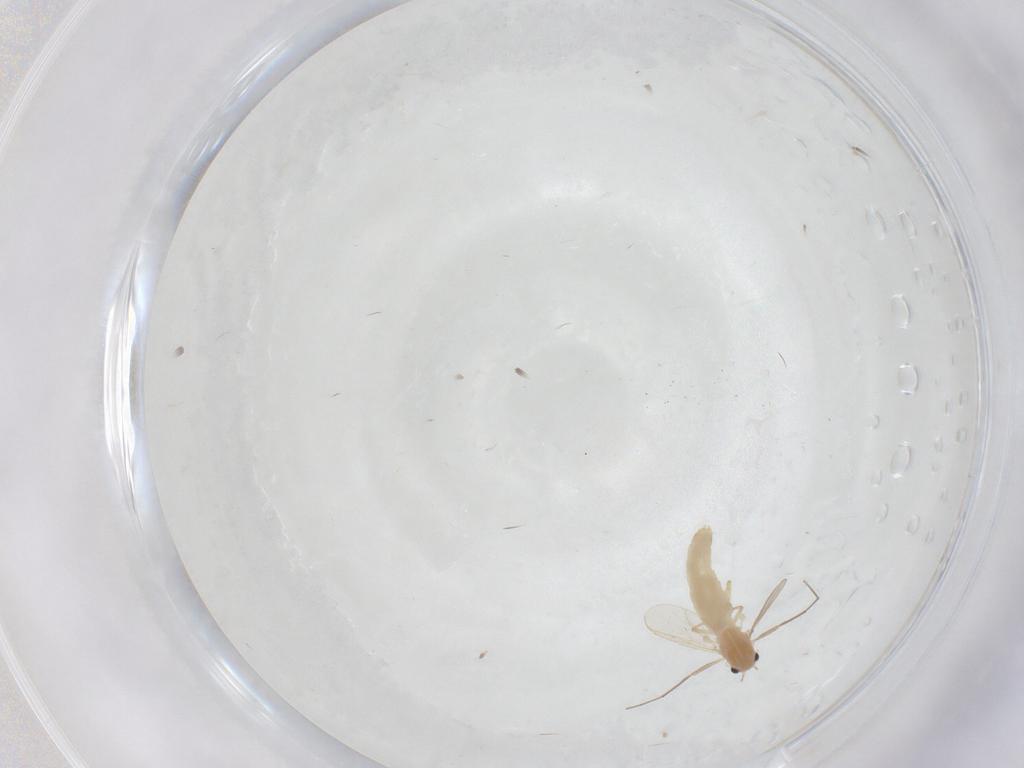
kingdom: Animalia
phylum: Arthropoda
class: Insecta
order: Diptera
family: Chironomidae
